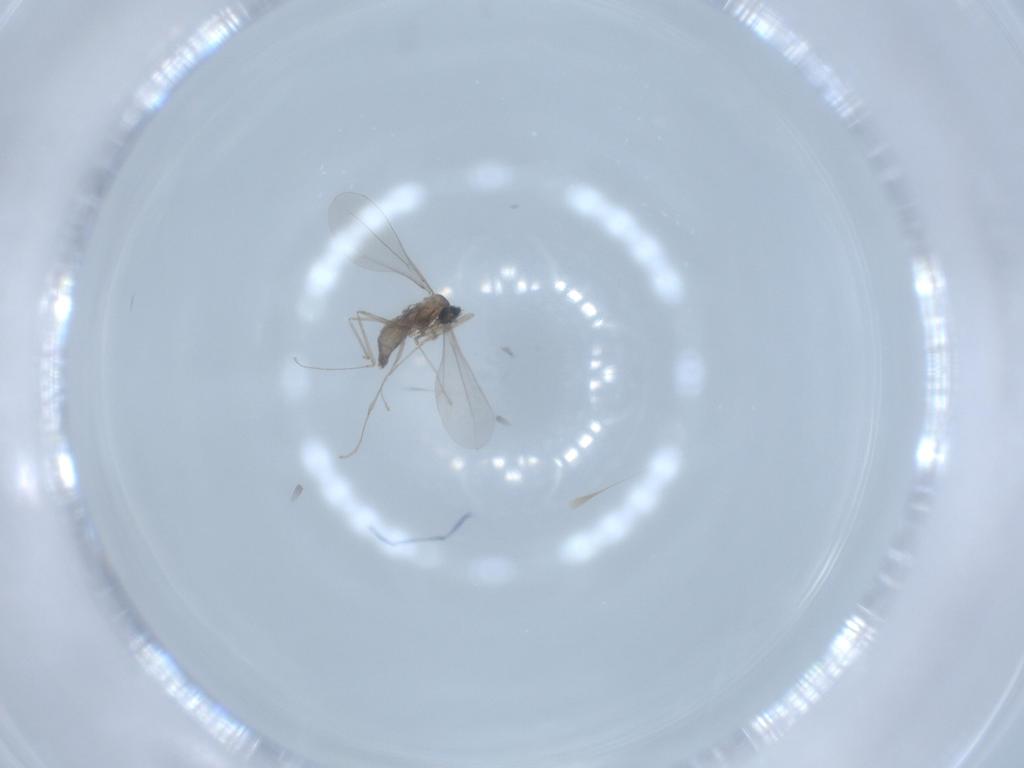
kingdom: Animalia
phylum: Arthropoda
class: Insecta
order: Diptera
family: Cecidomyiidae
